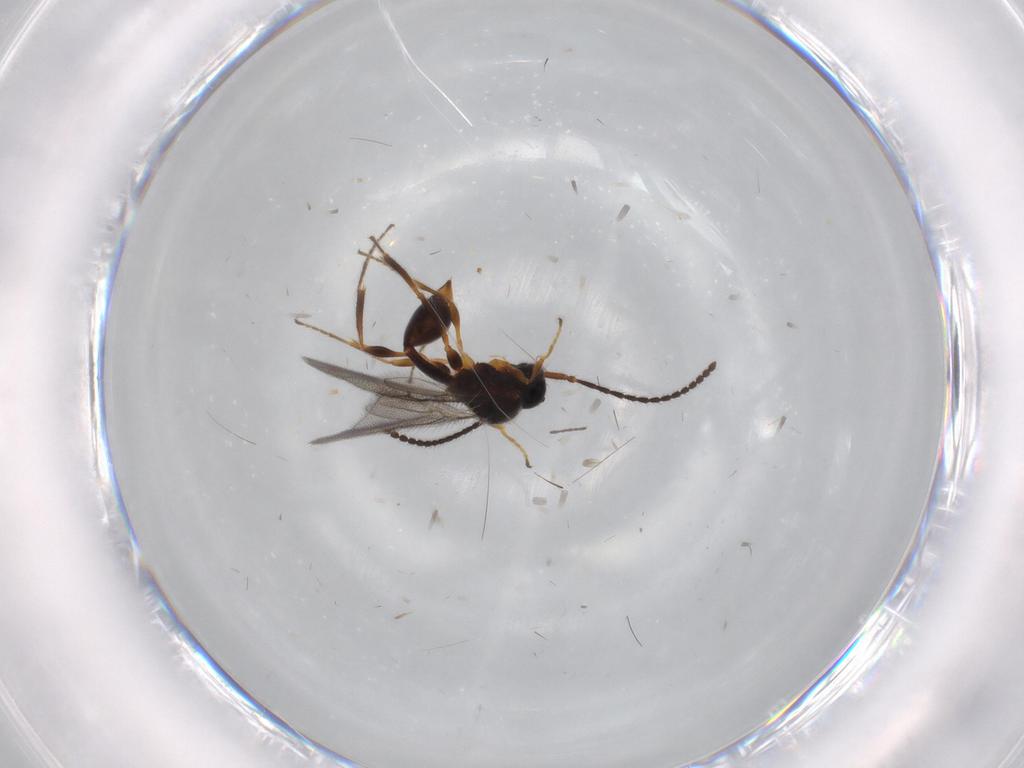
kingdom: Animalia
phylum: Arthropoda
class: Insecta
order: Hymenoptera
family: Diapriidae
